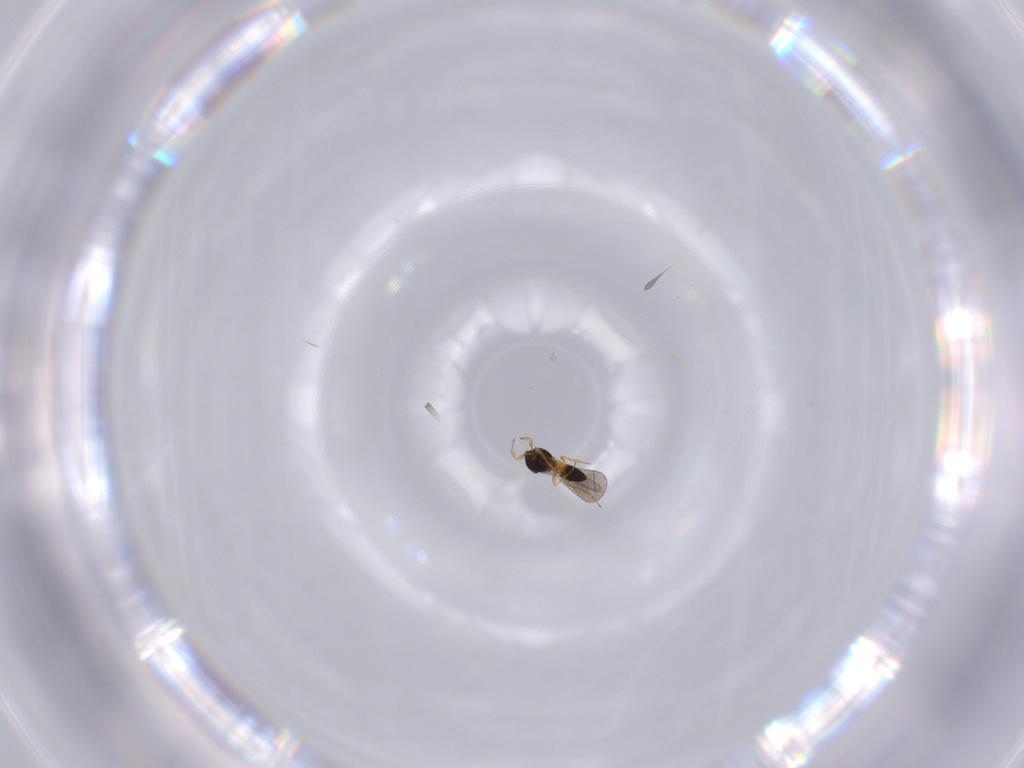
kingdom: Animalia
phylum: Arthropoda
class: Insecta
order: Hymenoptera
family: Platygastridae
